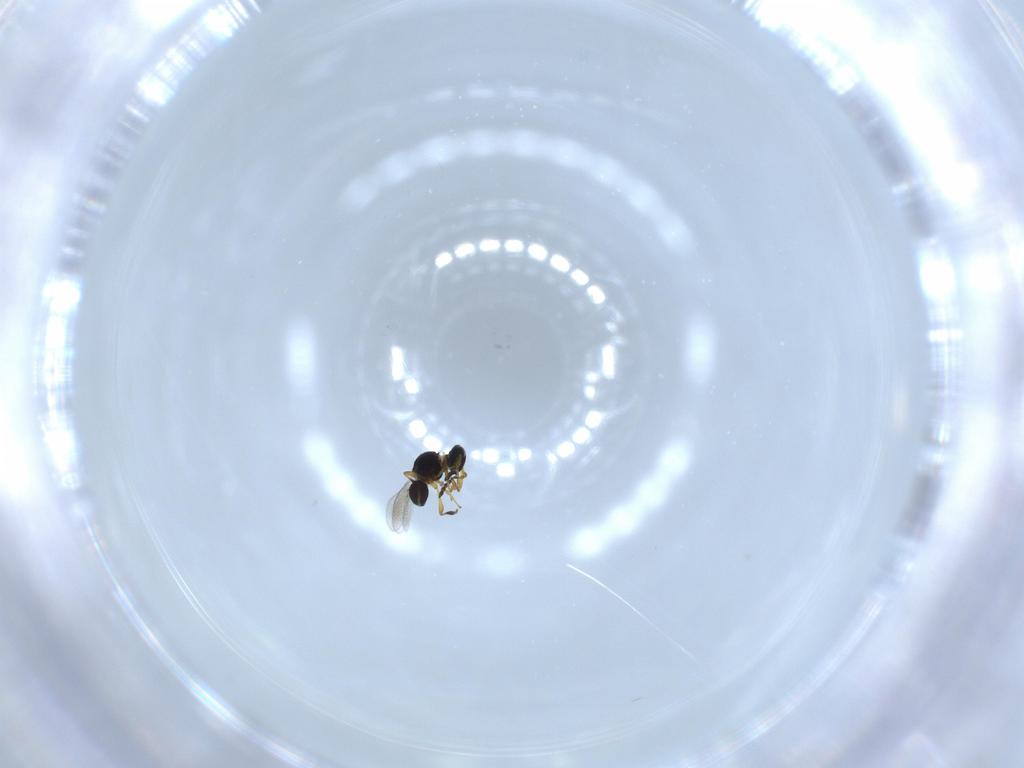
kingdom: Animalia
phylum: Arthropoda
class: Insecta
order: Hymenoptera
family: Platygastridae
